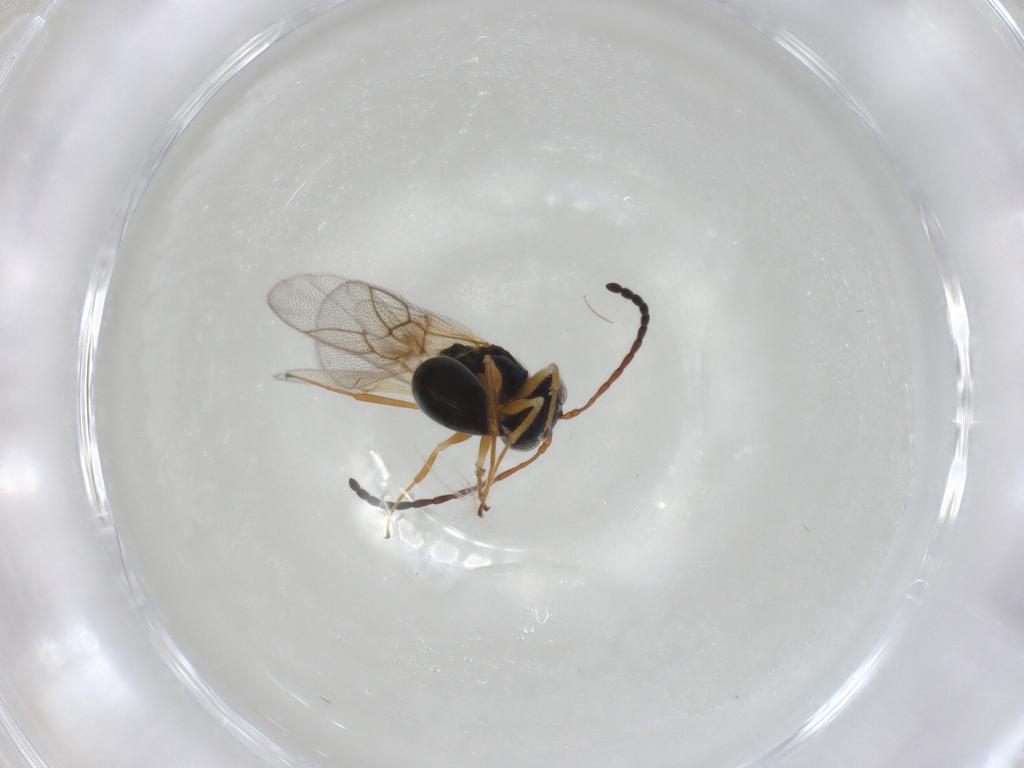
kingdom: Animalia
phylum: Arthropoda
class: Insecta
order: Hymenoptera
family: Figitidae
